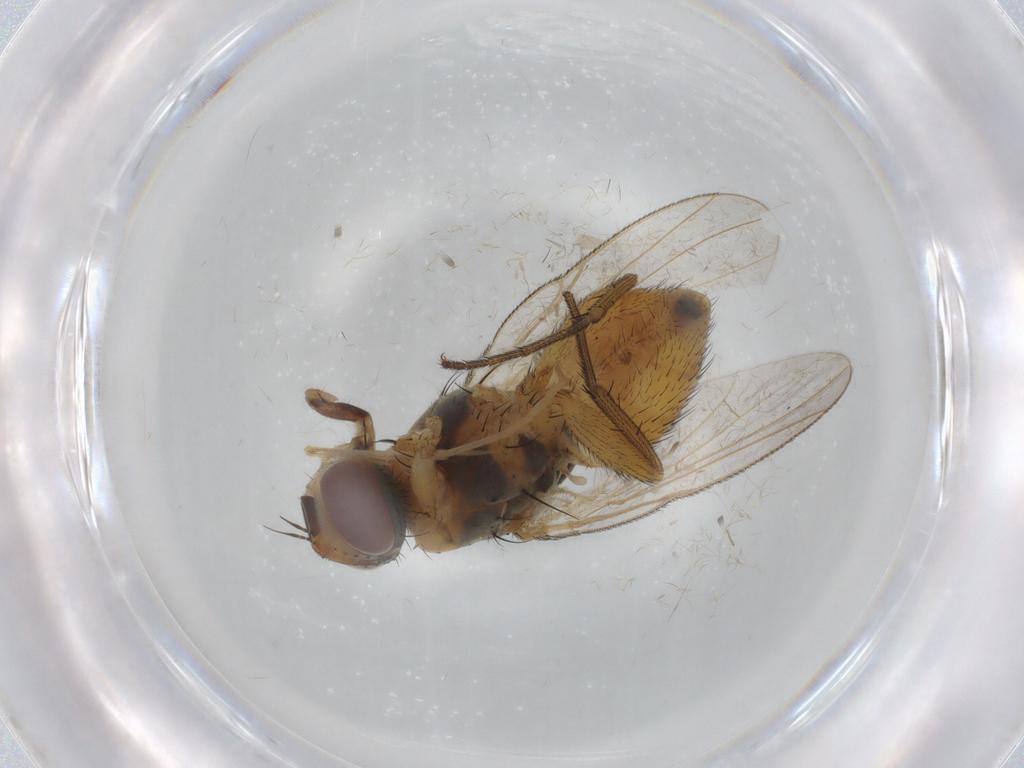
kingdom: Animalia
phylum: Arthropoda
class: Insecta
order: Diptera
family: Muscidae
